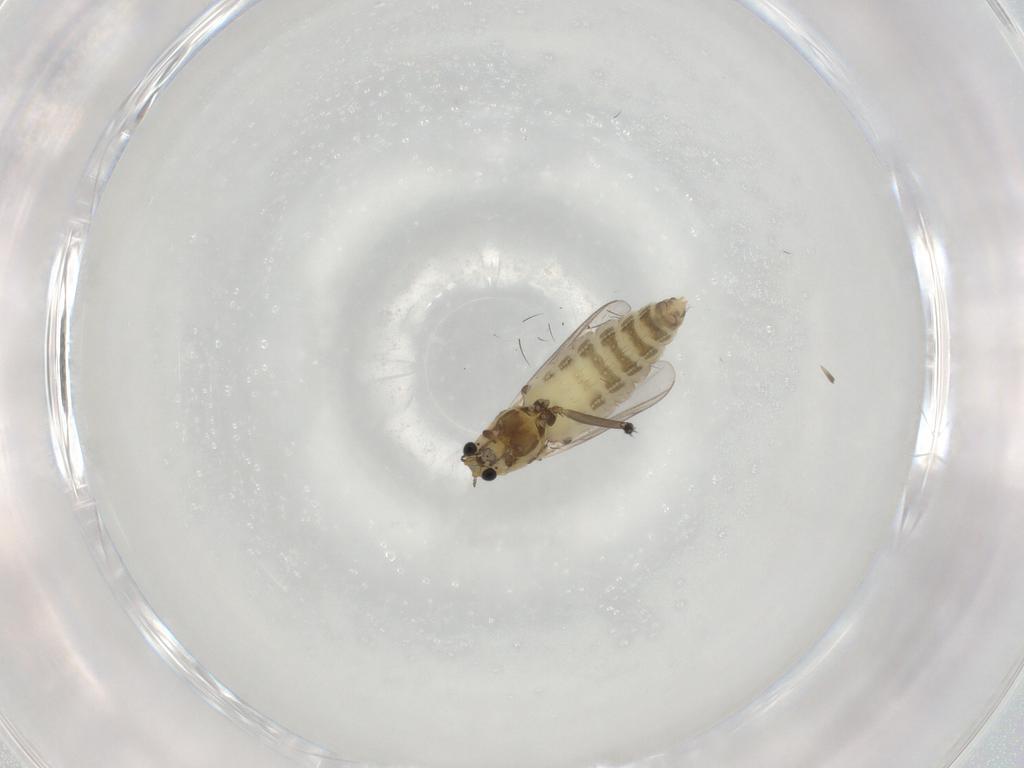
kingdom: Animalia
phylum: Arthropoda
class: Insecta
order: Diptera
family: Chironomidae
